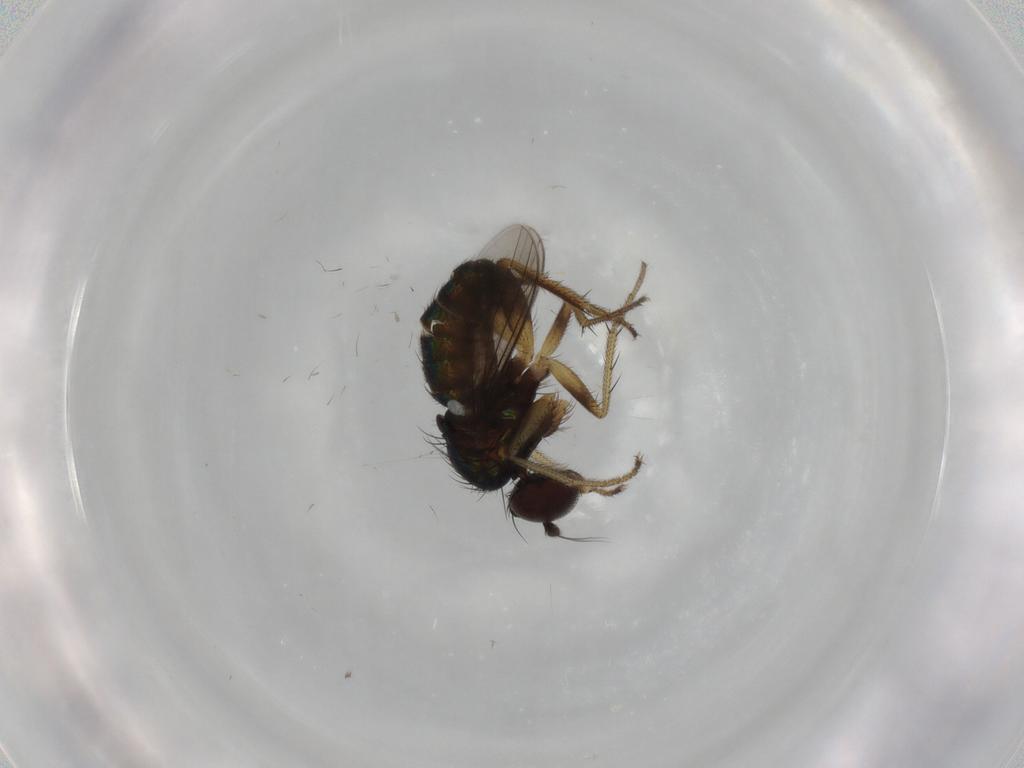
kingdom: Animalia
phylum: Arthropoda
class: Insecta
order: Diptera
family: Dolichopodidae
